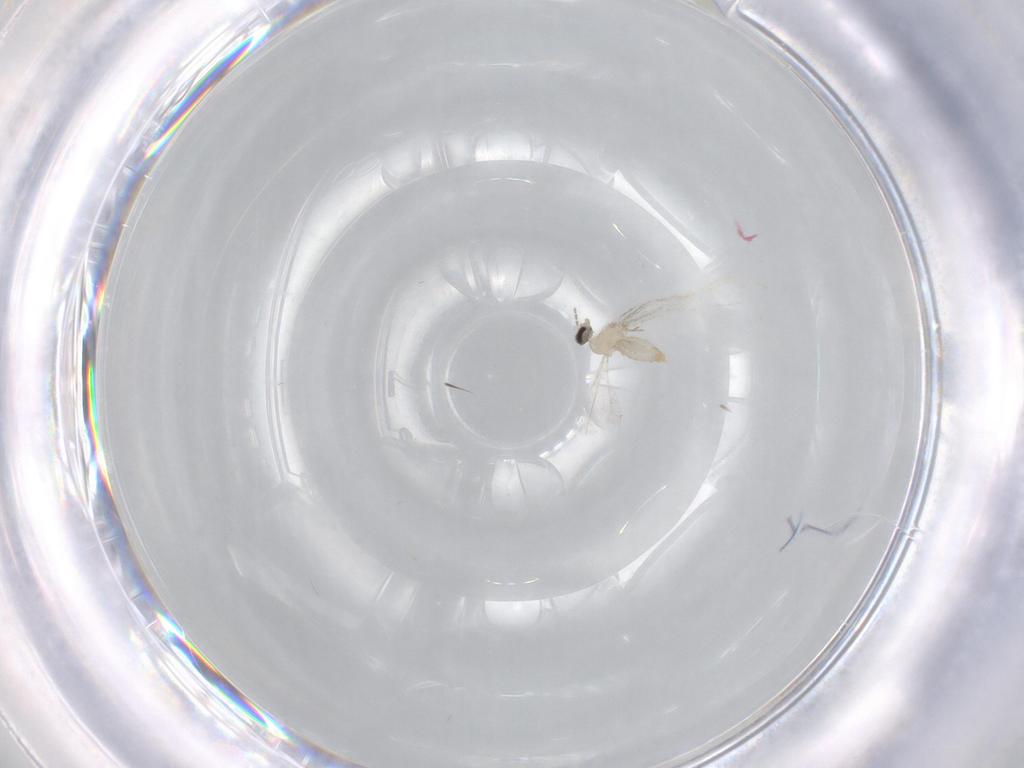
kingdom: Animalia
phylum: Arthropoda
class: Insecta
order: Diptera
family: Cecidomyiidae
